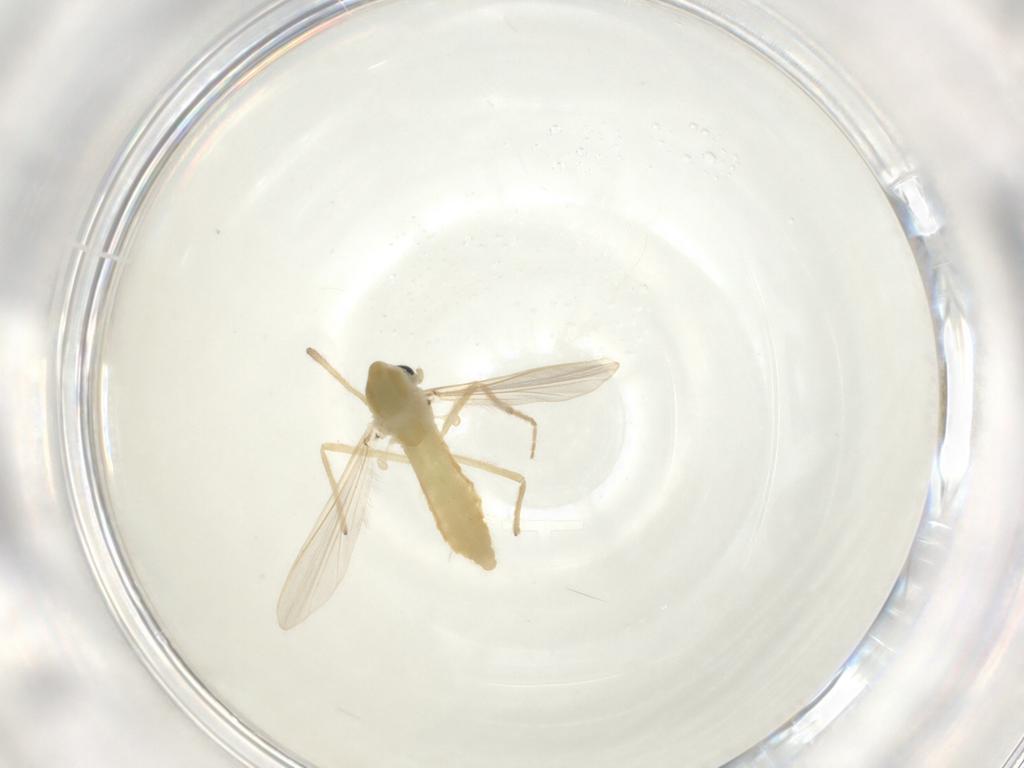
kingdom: Animalia
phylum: Arthropoda
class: Insecta
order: Diptera
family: Chironomidae
